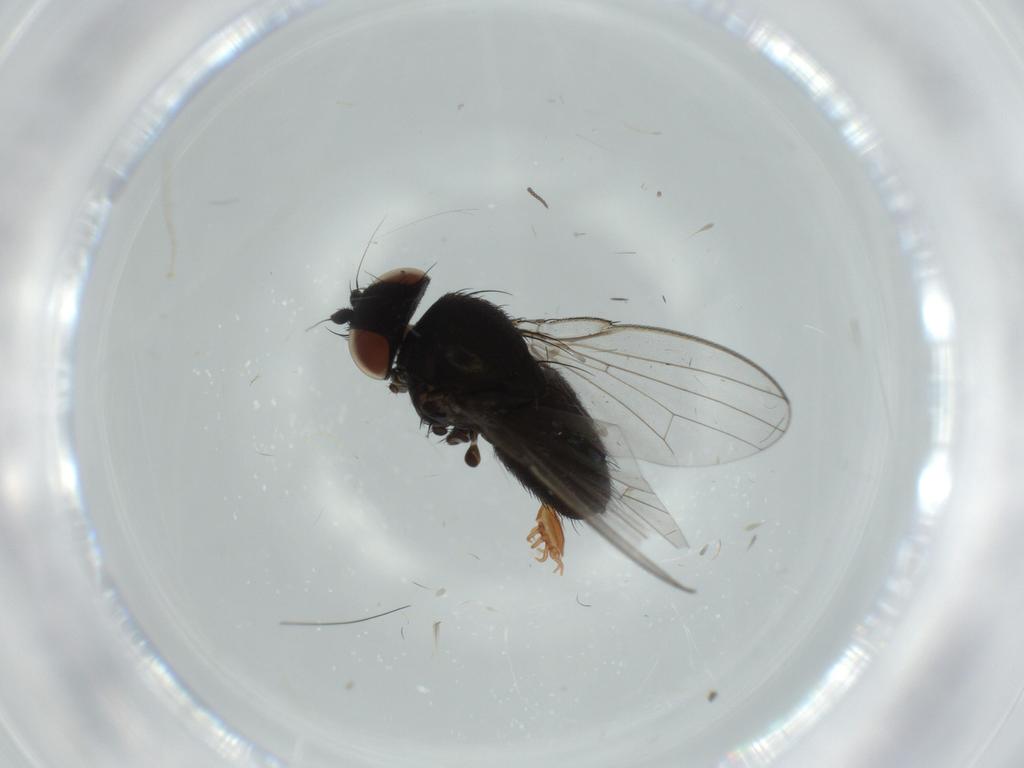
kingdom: Animalia
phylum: Arthropoda
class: Insecta
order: Diptera
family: Milichiidae
